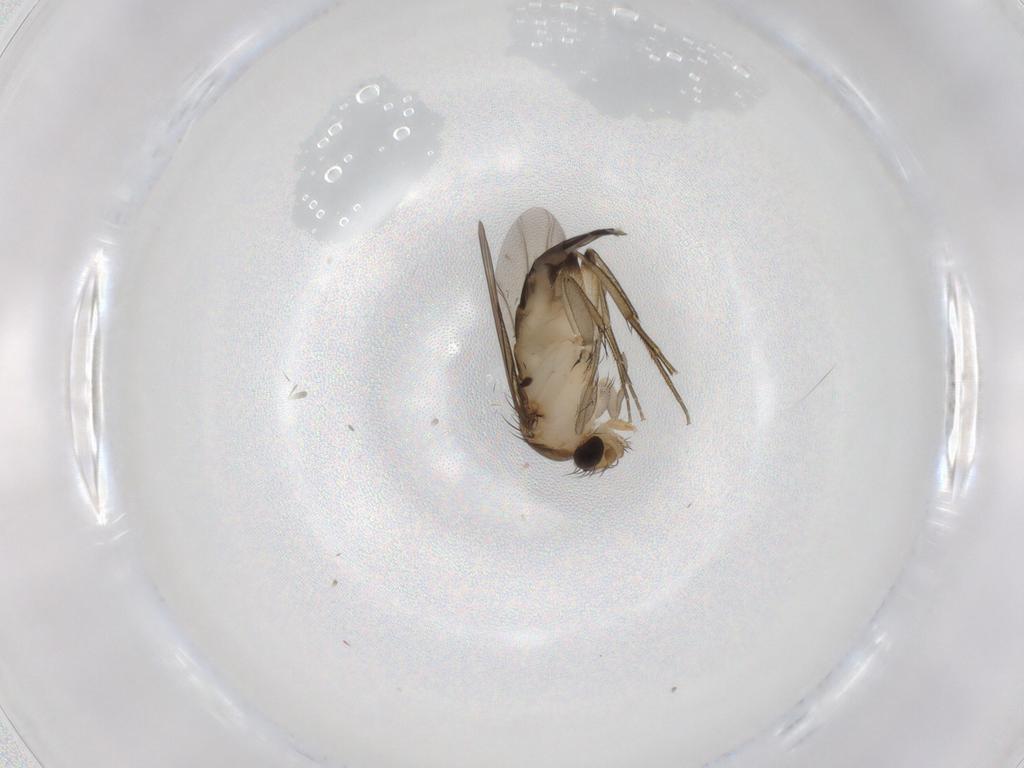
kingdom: Animalia
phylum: Arthropoda
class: Insecta
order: Diptera
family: Phoridae
